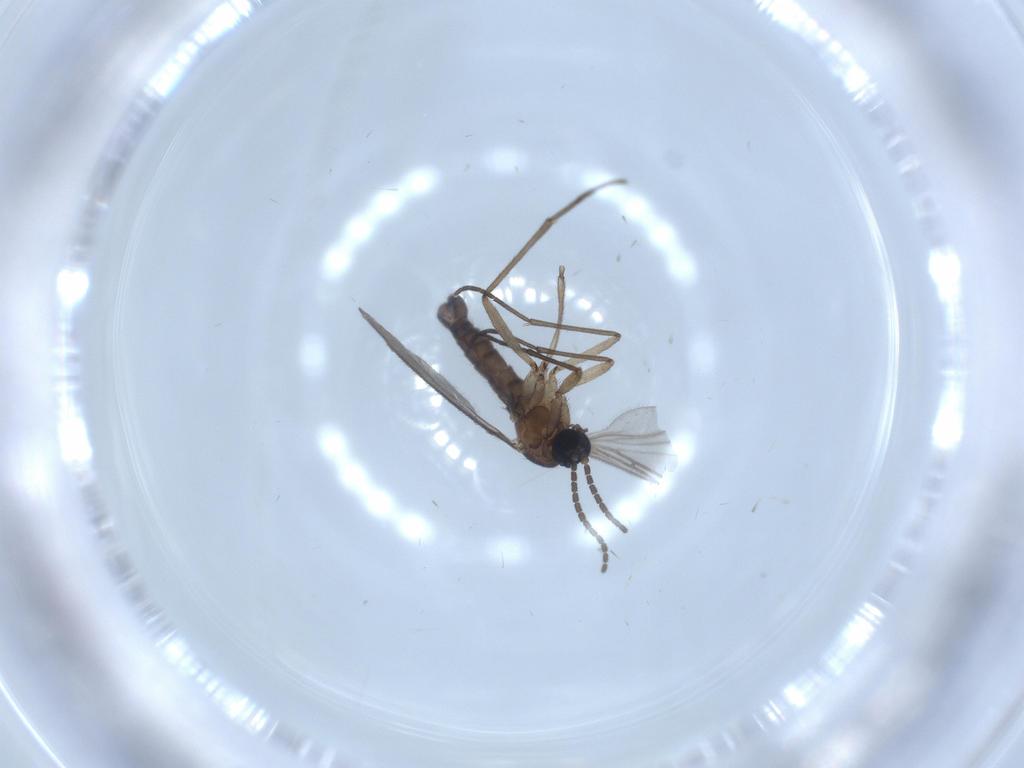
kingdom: Animalia
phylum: Arthropoda
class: Insecta
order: Diptera
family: Sciaridae
